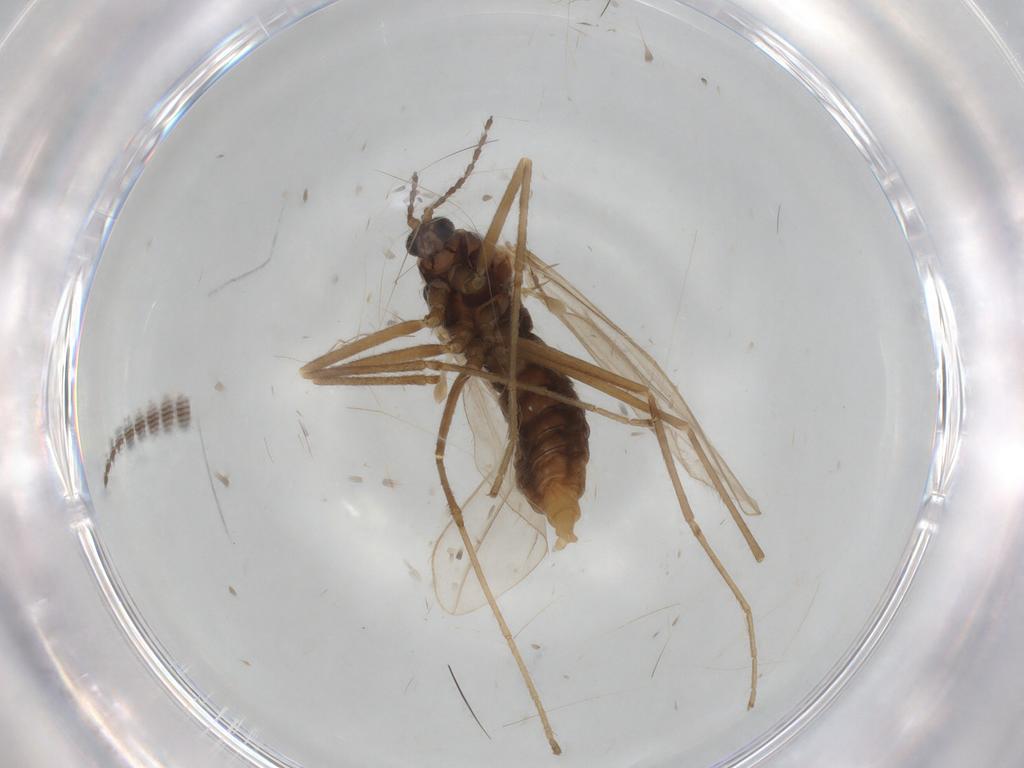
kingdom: Animalia
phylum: Arthropoda
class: Insecta
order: Diptera
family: Cecidomyiidae
